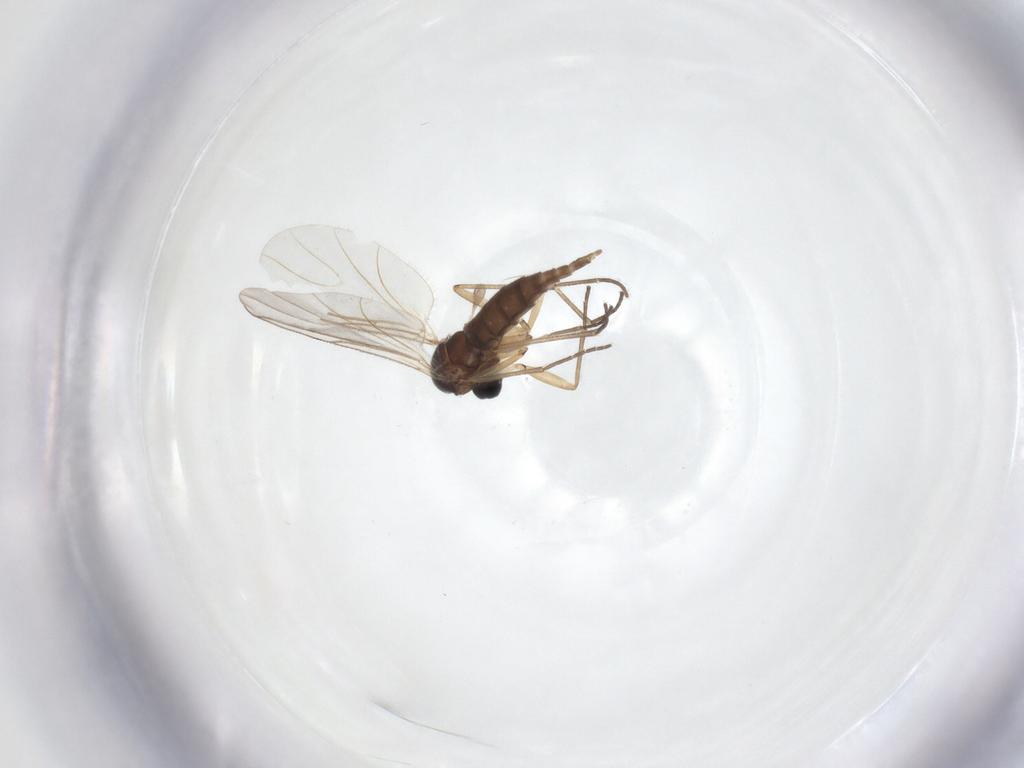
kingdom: Animalia
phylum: Arthropoda
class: Insecta
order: Diptera
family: Sciaridae
